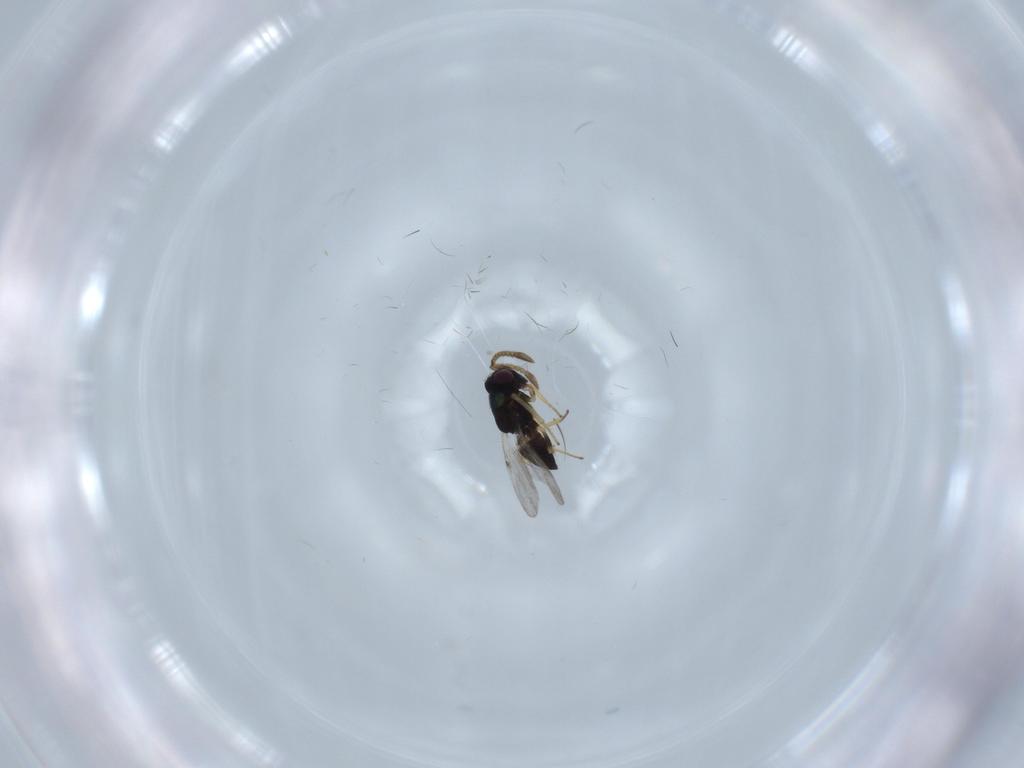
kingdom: Animalia
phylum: Arthropoda
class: Insecta
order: Hymenoptera
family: Encyrtidae
